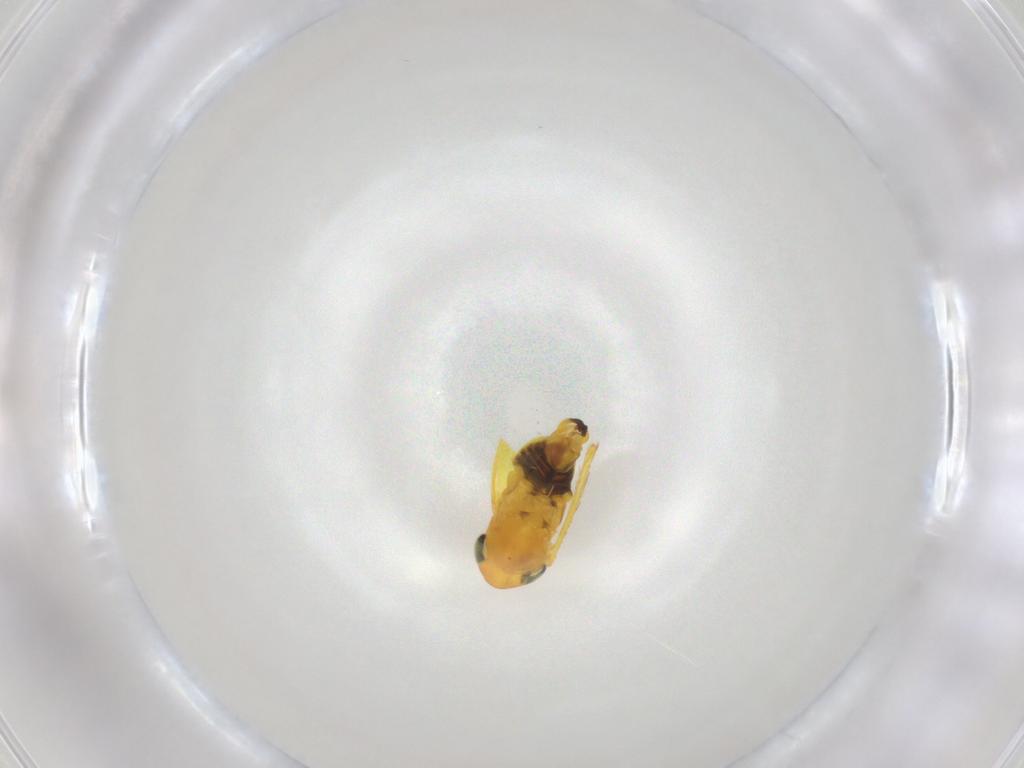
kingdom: Animalia
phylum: Arthropoda
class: Insecta
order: Hemiptera
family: Cicadellidae
